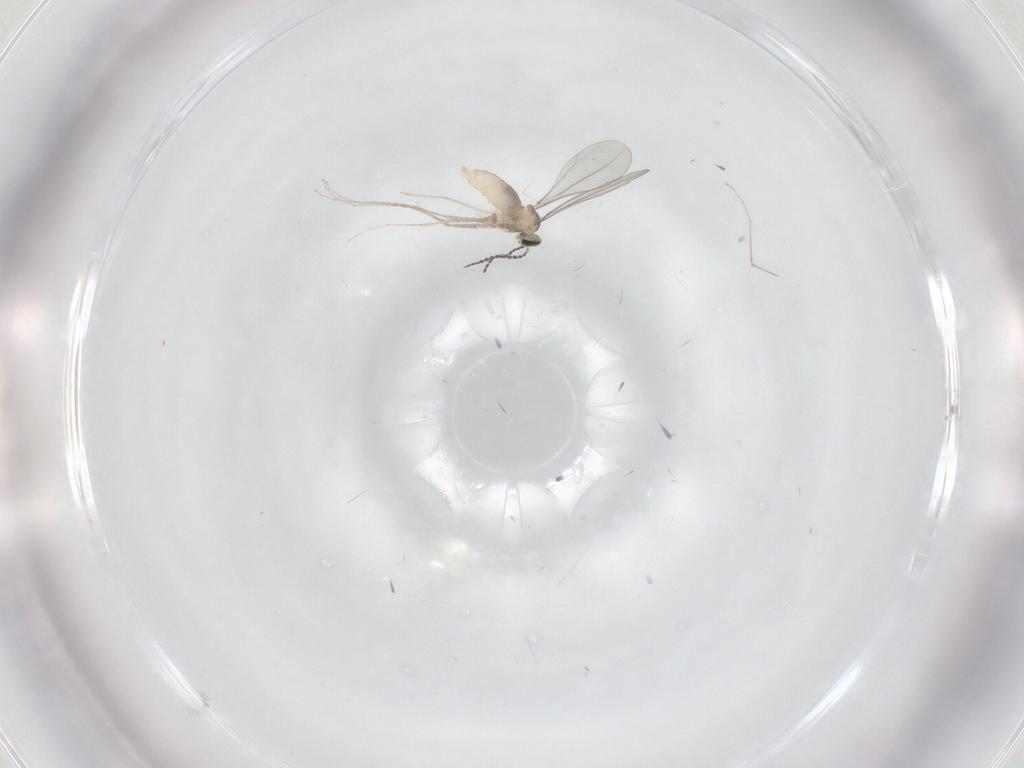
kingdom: Animalia
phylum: Arthropoda
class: Insecta
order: Diptera
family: Cecidomyiidae
